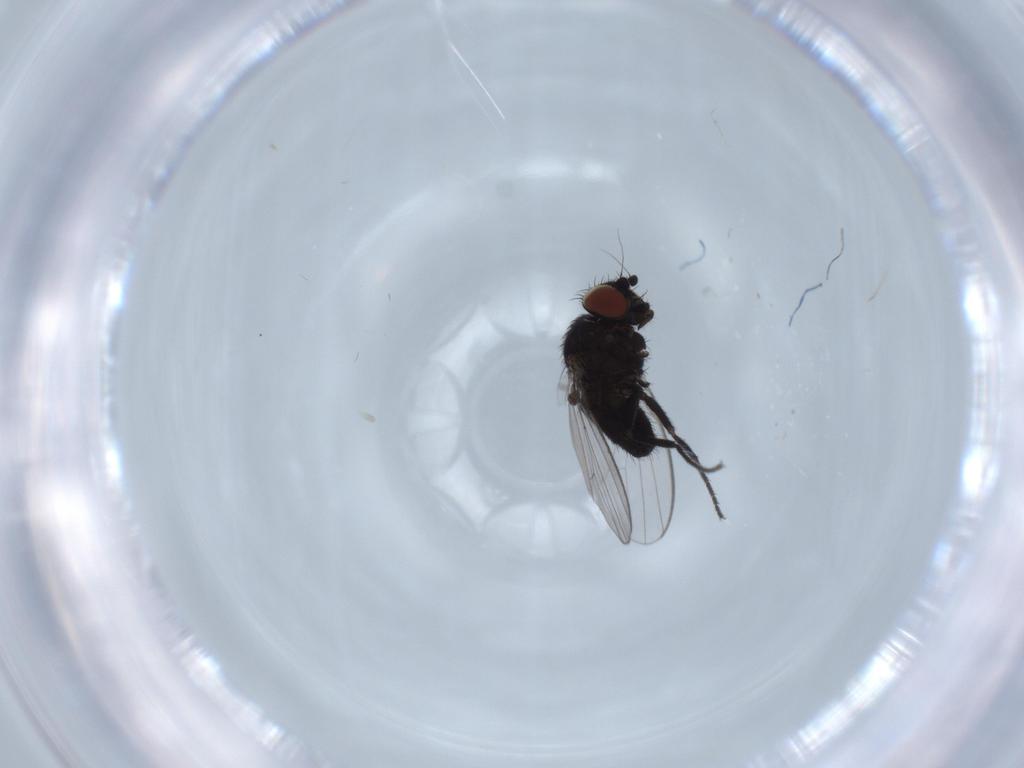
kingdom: Animalia
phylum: Arthropoda
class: Insecta
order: Diptera
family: Milichiidae
